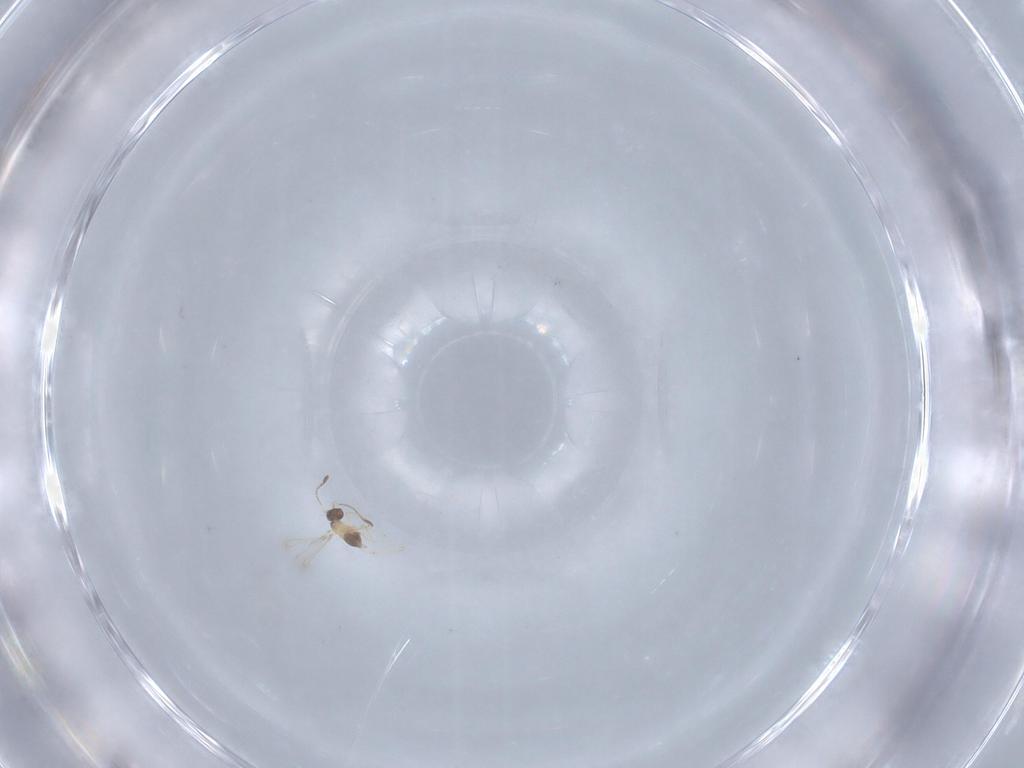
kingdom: Animalia
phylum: Arthropoda
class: Insecta
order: Hymenoptera
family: Mymaridae
